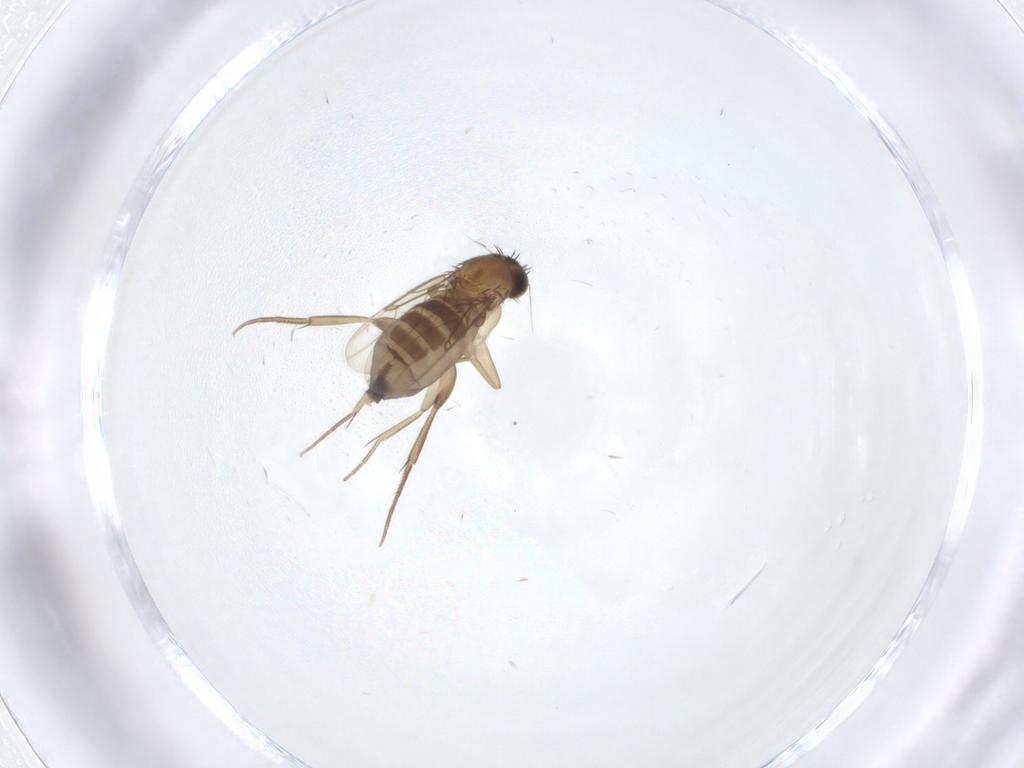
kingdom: Animalia
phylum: Arthropoda
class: Insecta
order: Diptera
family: Phoridae
